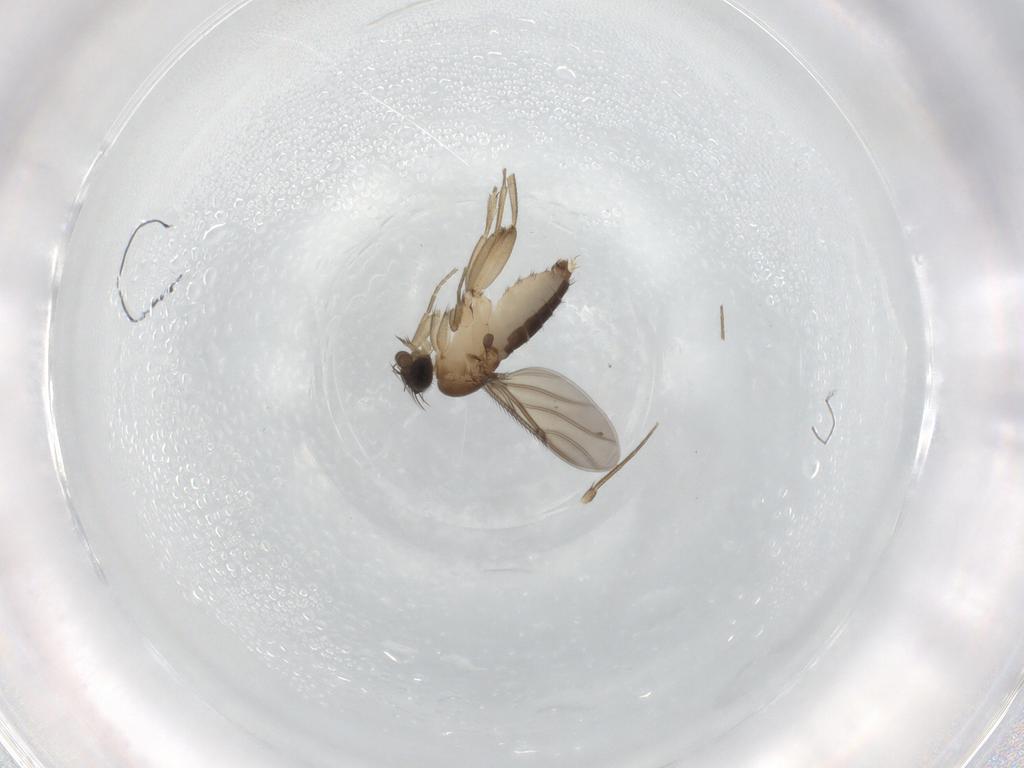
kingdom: Animalia
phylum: Arthropoda
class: Insecta
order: Diptera
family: Phoridae
